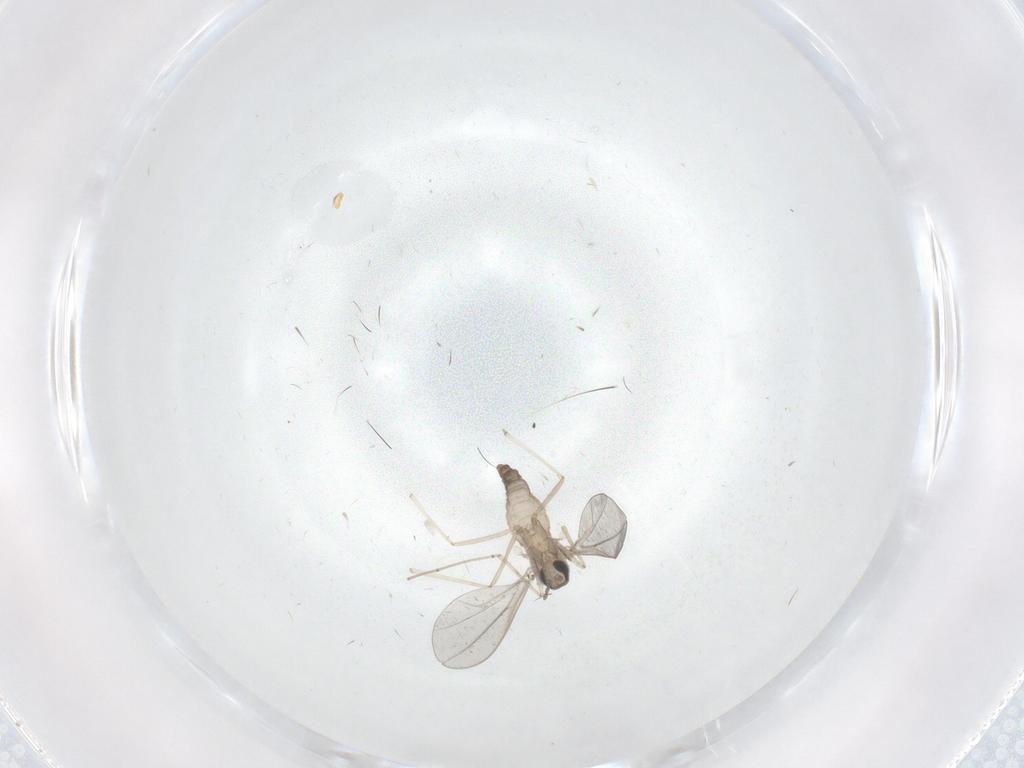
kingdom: Animalia
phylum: Arthropoda
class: Insecta
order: Diptera
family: Cecidomyiidae
